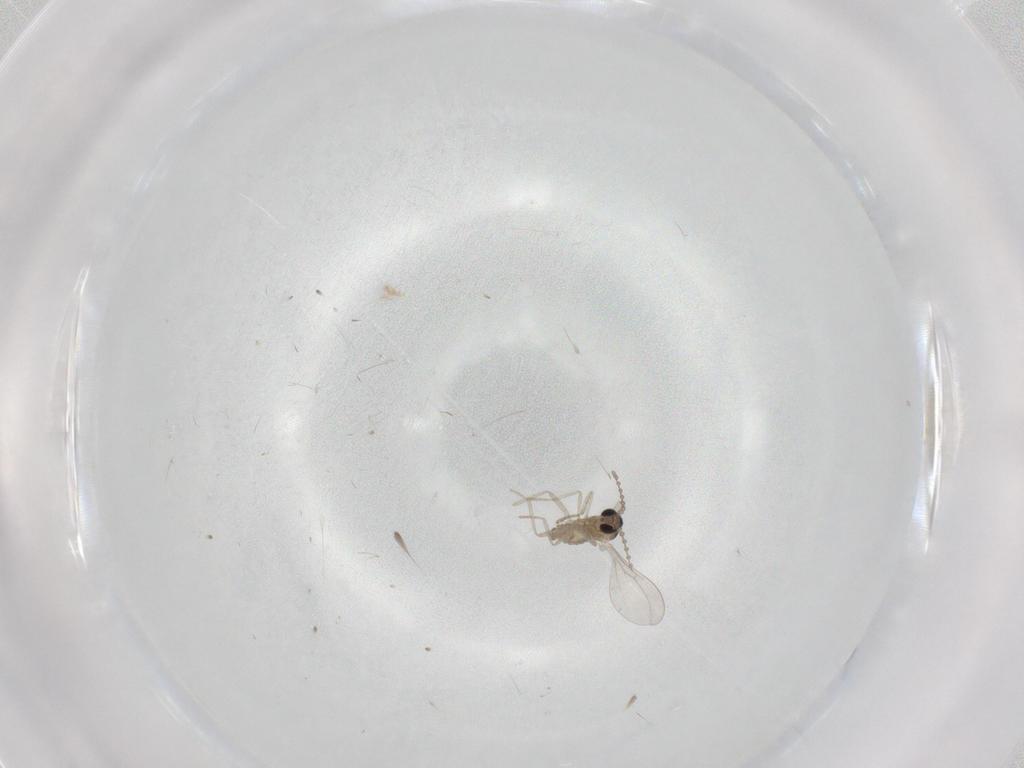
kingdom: Animalia
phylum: Arthropoda
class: Insecta
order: Diptera
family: Cecidomyiidae
